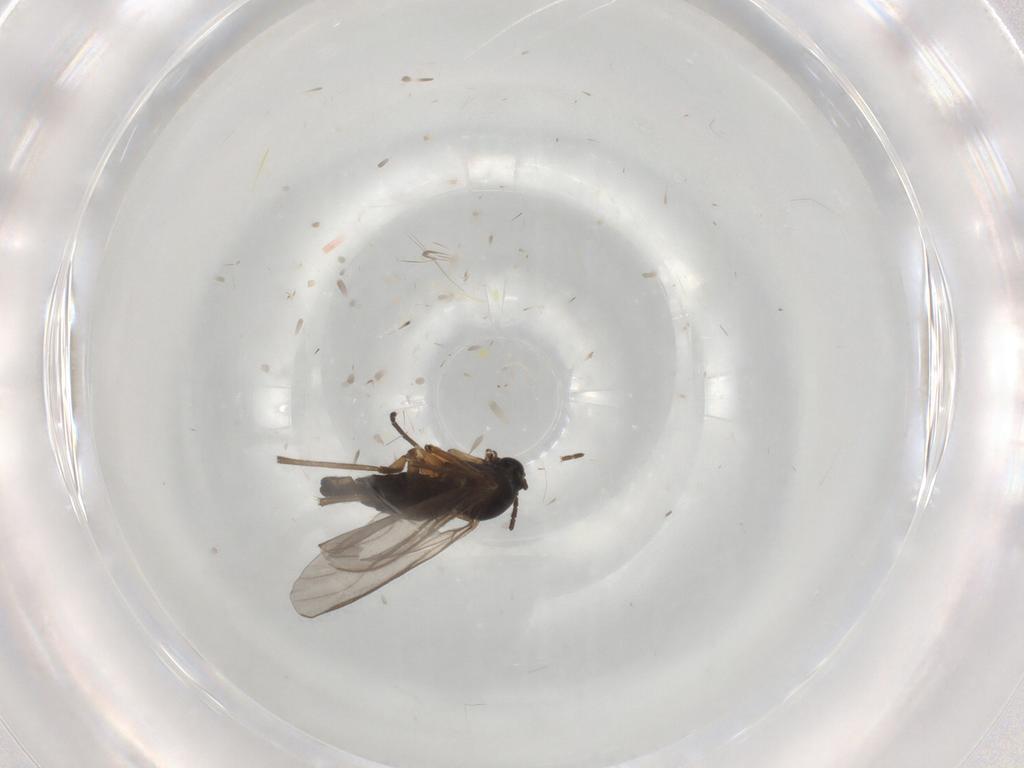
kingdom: Animalia
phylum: Arthropoda
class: Insecta
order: Diptera
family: Sciaridae
